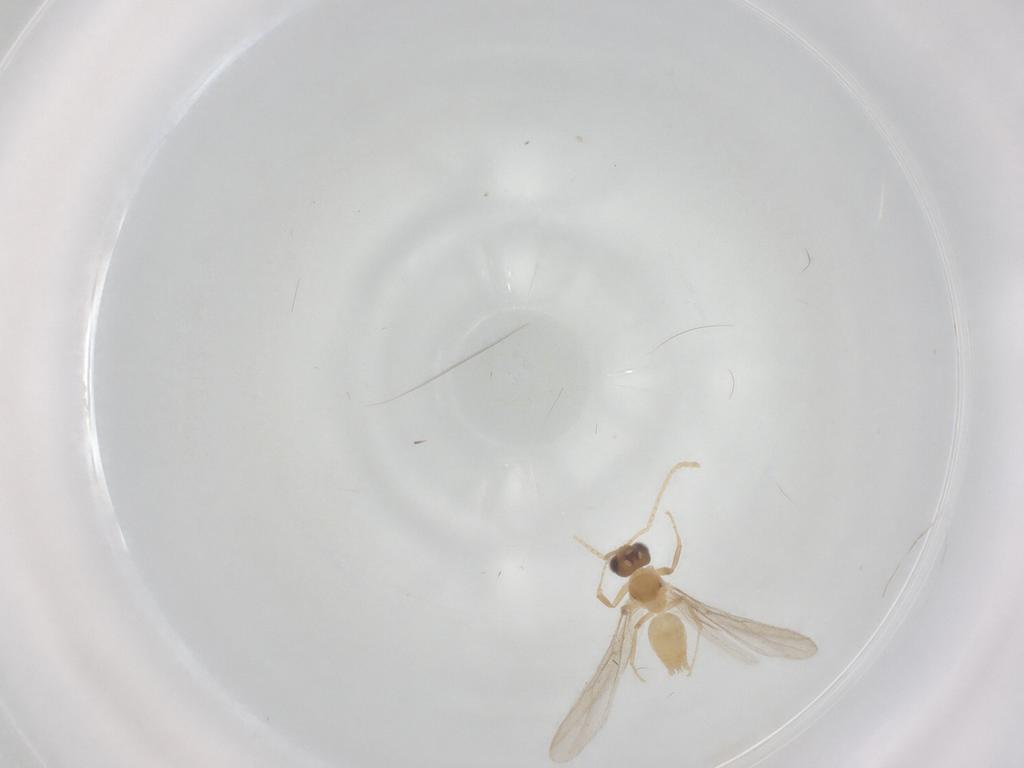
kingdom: Animalia
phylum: Arthropoda
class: Insecta
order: Hymenoptera
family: Formicidae
